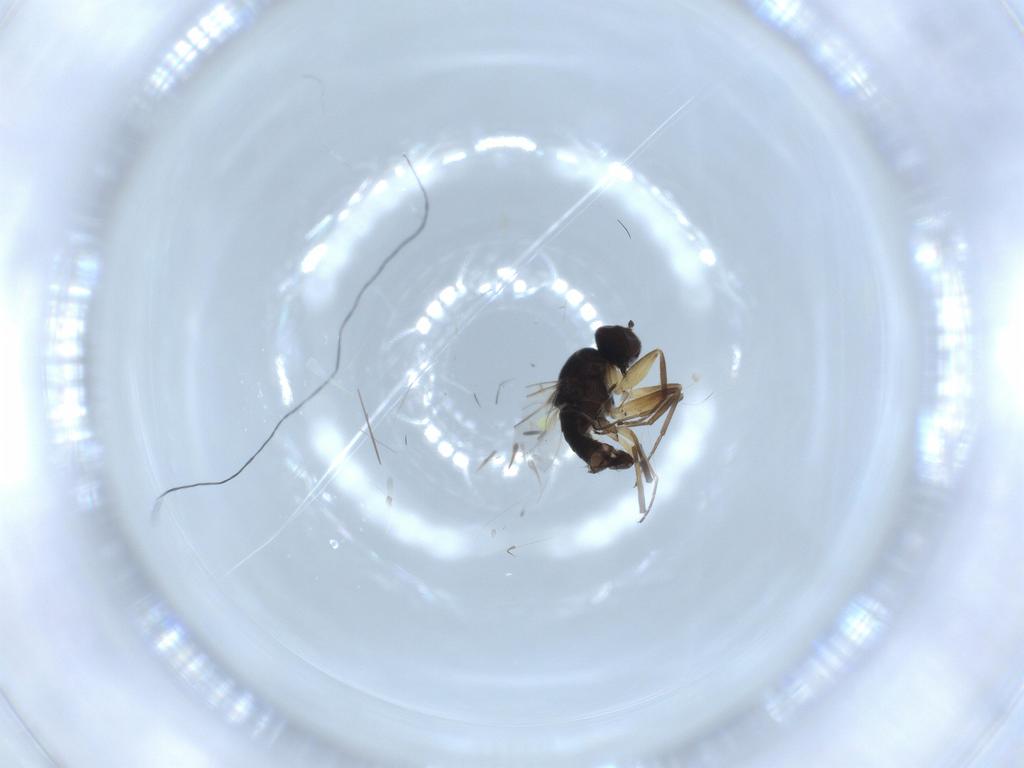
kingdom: Animalia
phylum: Arthropoda
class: Insecta
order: Diptera
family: Hybotidae
